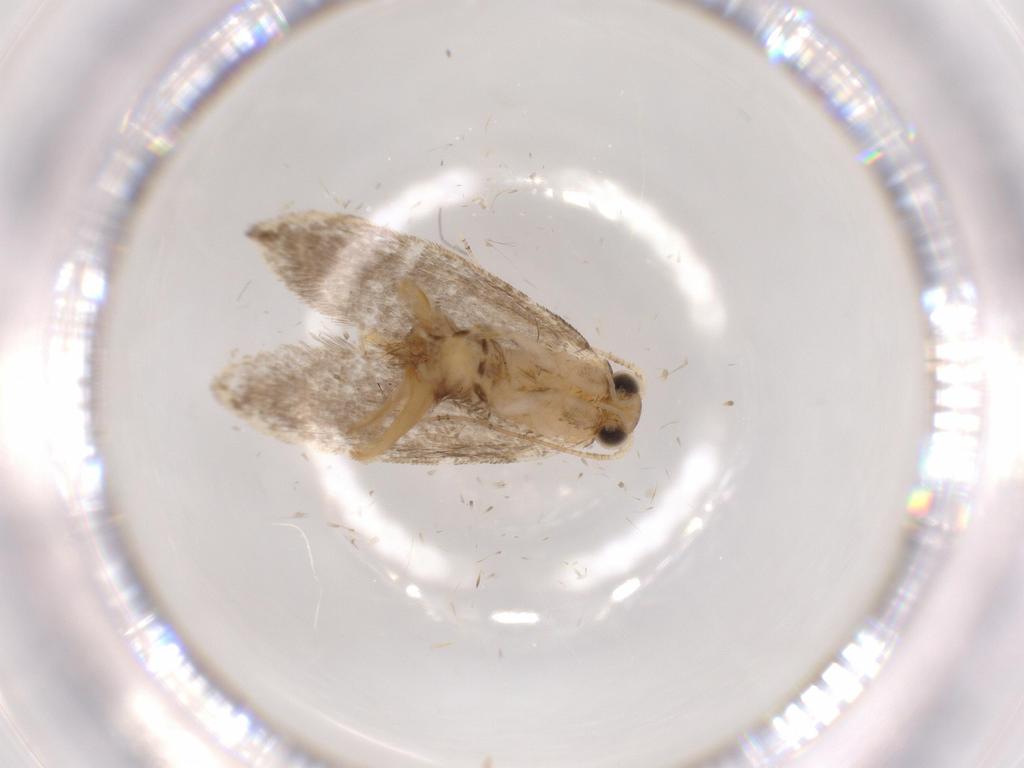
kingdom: Animalia
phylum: Arthropoda
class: Insecta
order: Lepidoptera
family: Tineidae
